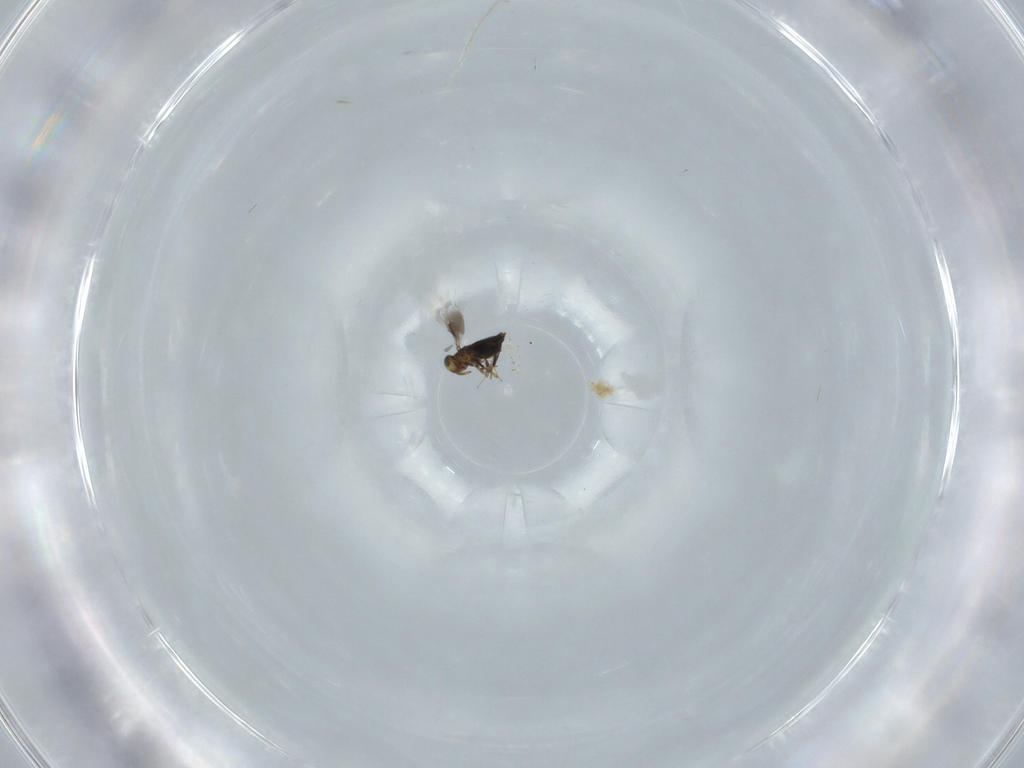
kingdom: Animalia
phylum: Arthropoda
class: Insecta
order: Hymenoptera
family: Signiphoridae
